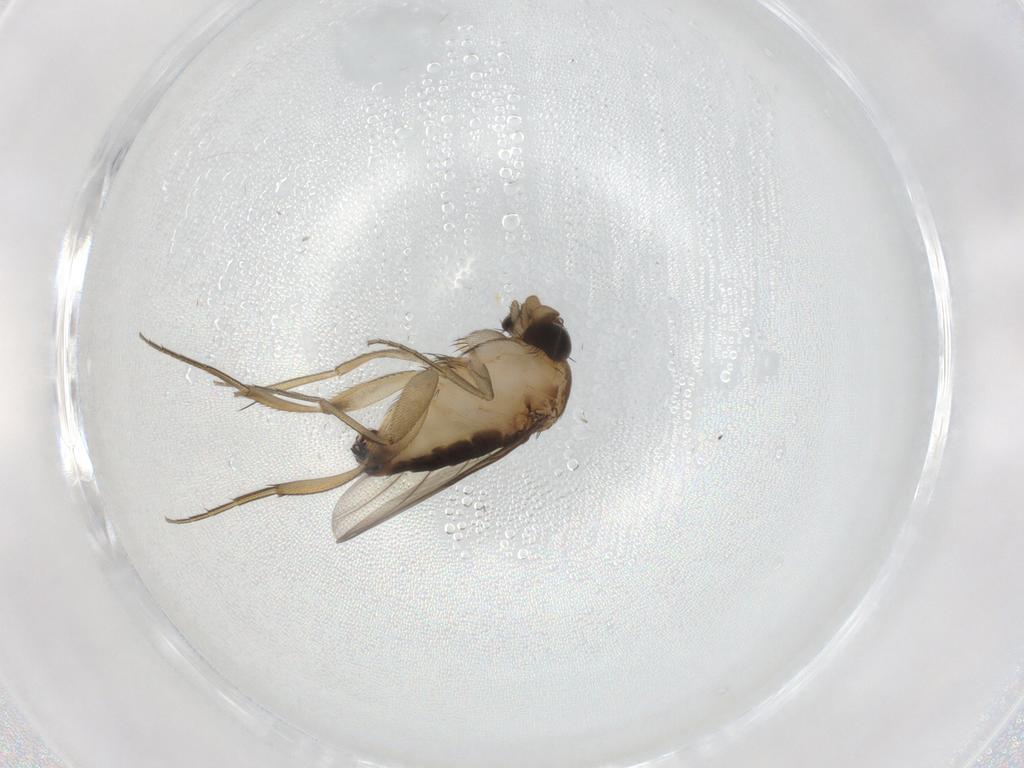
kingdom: Animalia
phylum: Arthropoda
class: Insecta
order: Diptera
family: Phoridae
